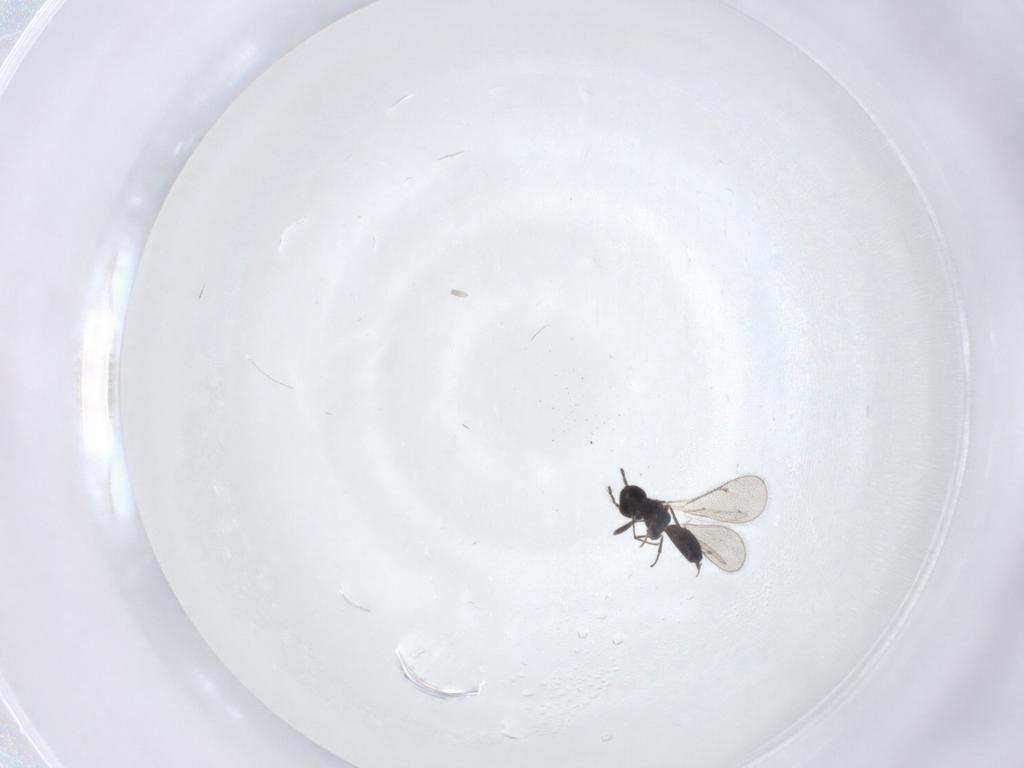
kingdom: Animalia
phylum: Arthropoda
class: Insecta
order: Hymenoptera
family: Eulophidae
